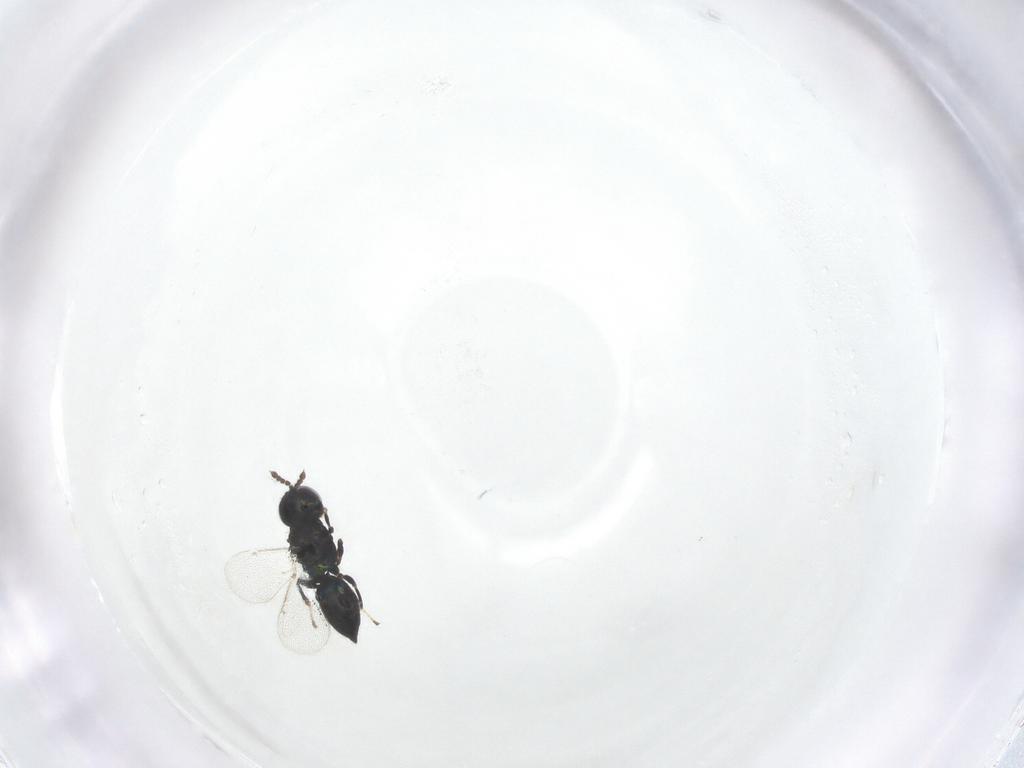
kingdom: Animalia
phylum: Arthropoda
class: Insecta
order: Hymenoptera
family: Eulophidae
